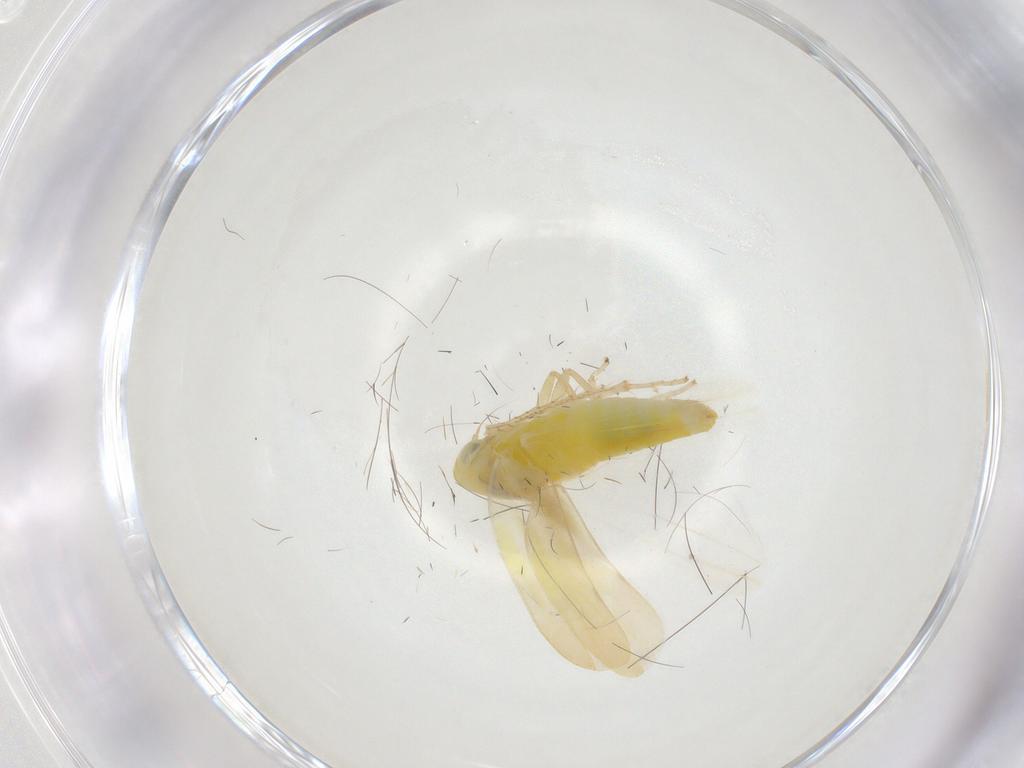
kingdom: Animalia
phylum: Arthropoda
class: Insecta
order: Hemiptera
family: Cicadellidae
